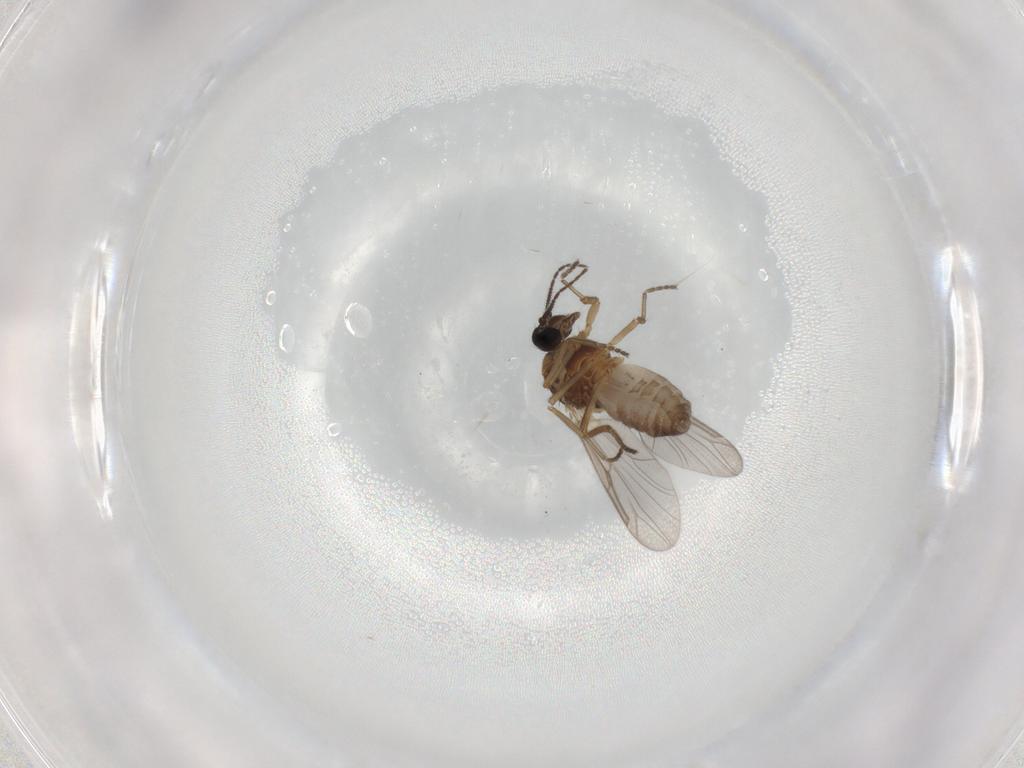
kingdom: Animalia
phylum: Arthropoda
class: Insecta
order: Diptera
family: Ceratopogonidae
